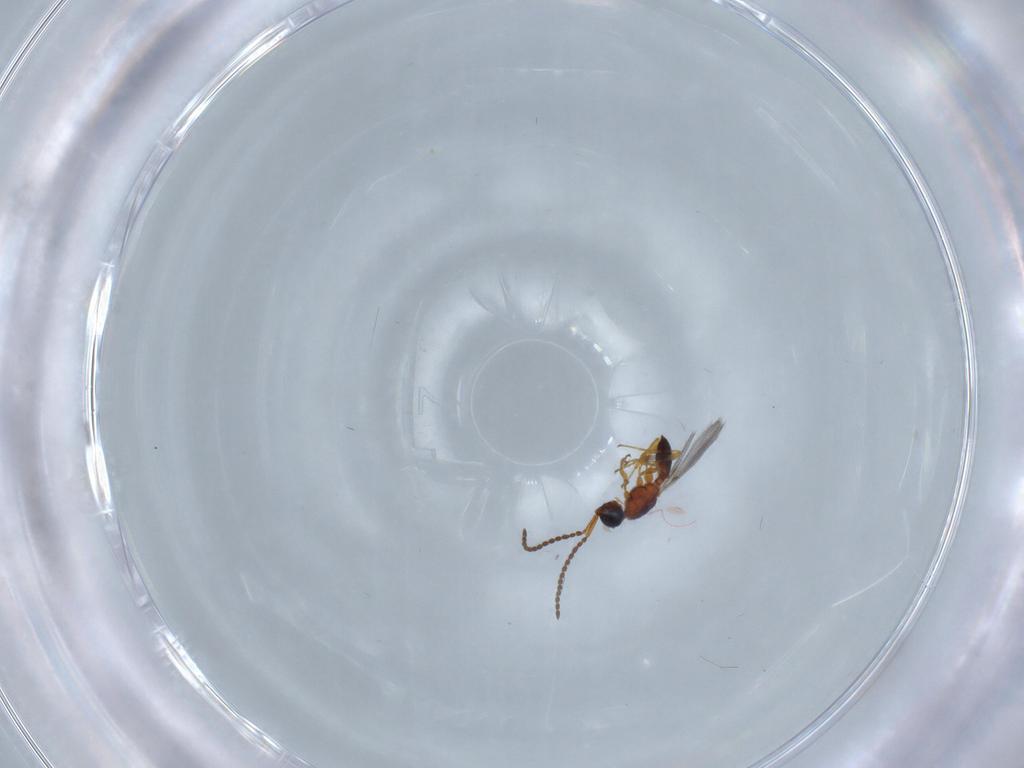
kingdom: Animalia
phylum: Arthropoda
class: Insecta
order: Hymenoptera
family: Diapriidae
